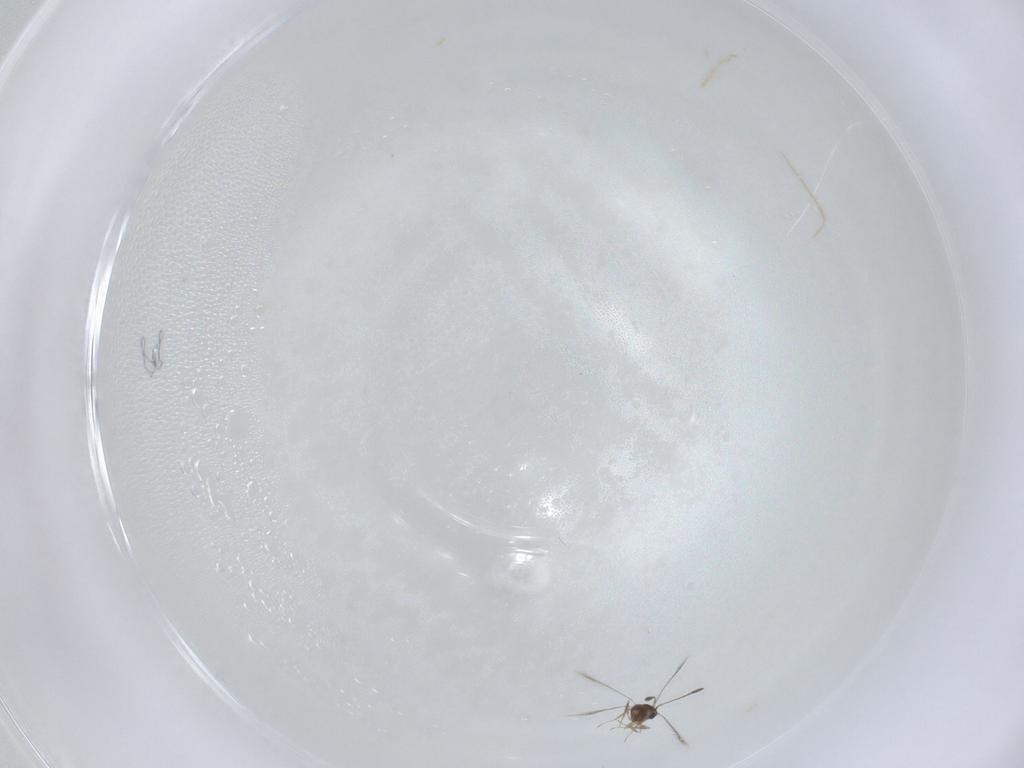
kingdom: Animalia
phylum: Arthropoda
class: Insecta
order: Hymenoptera
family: Mymaridae
